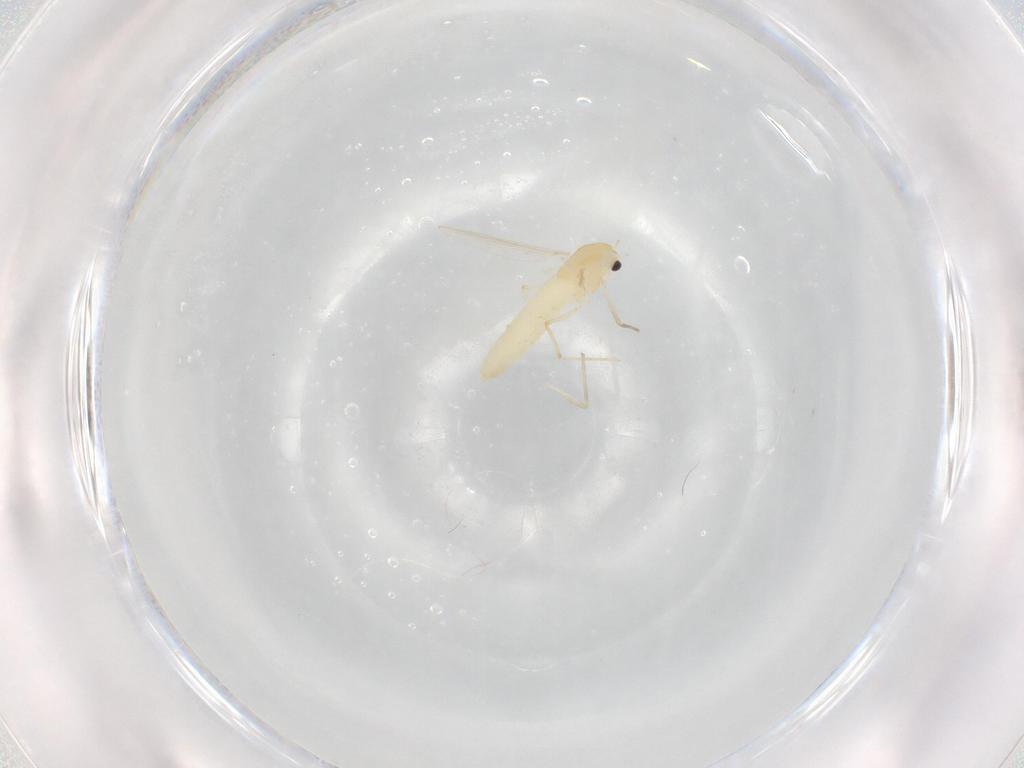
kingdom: Animalia
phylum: Arthropoda
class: Insecta
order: Diptera
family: Chironomidae
